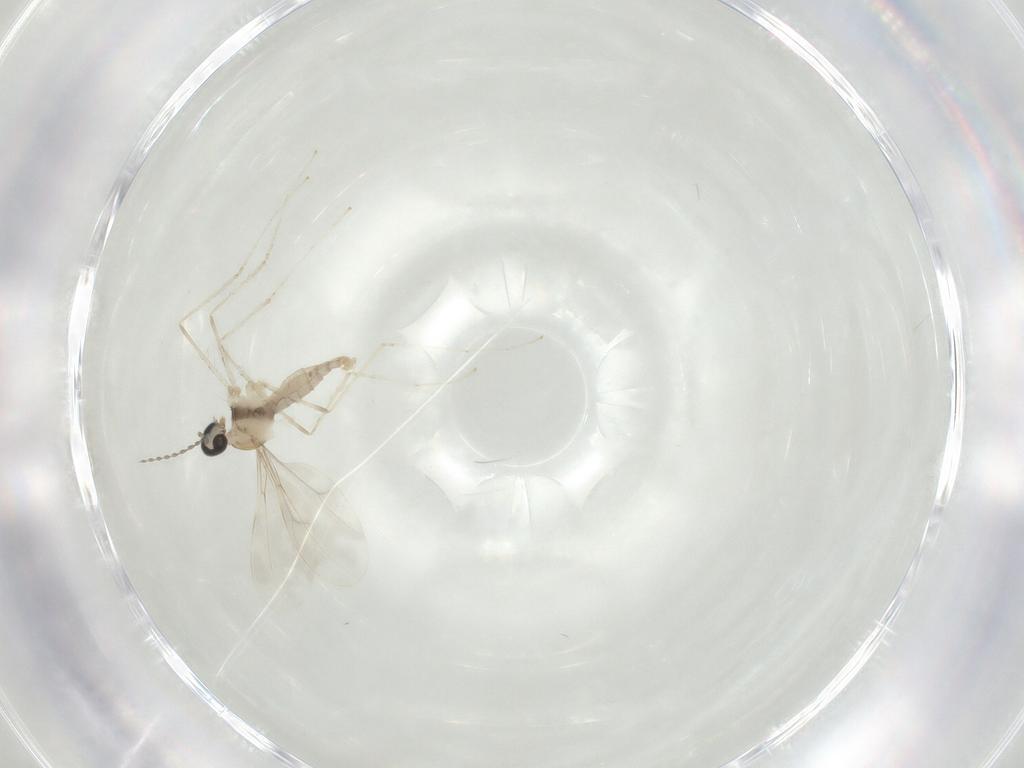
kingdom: Animalia
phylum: Arthropoda
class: Insecta
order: Diptera
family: Cecidomyiidae
